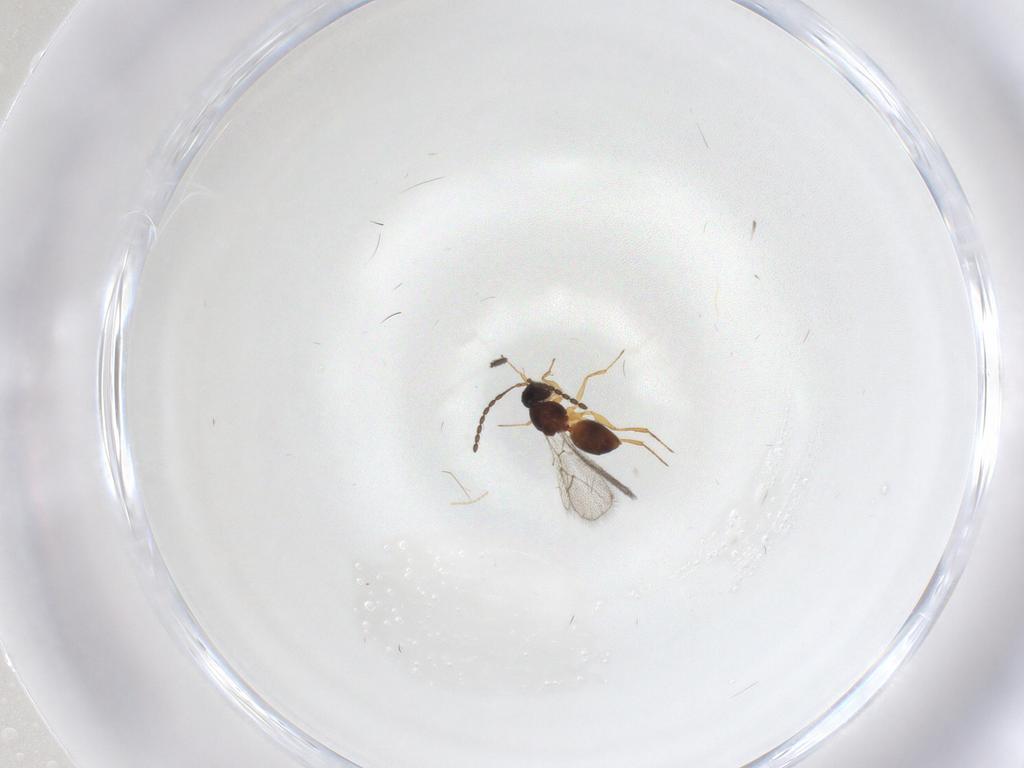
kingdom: Animalia
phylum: Arthropoda
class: Insecta
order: Hymenoptera
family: Figitidae
